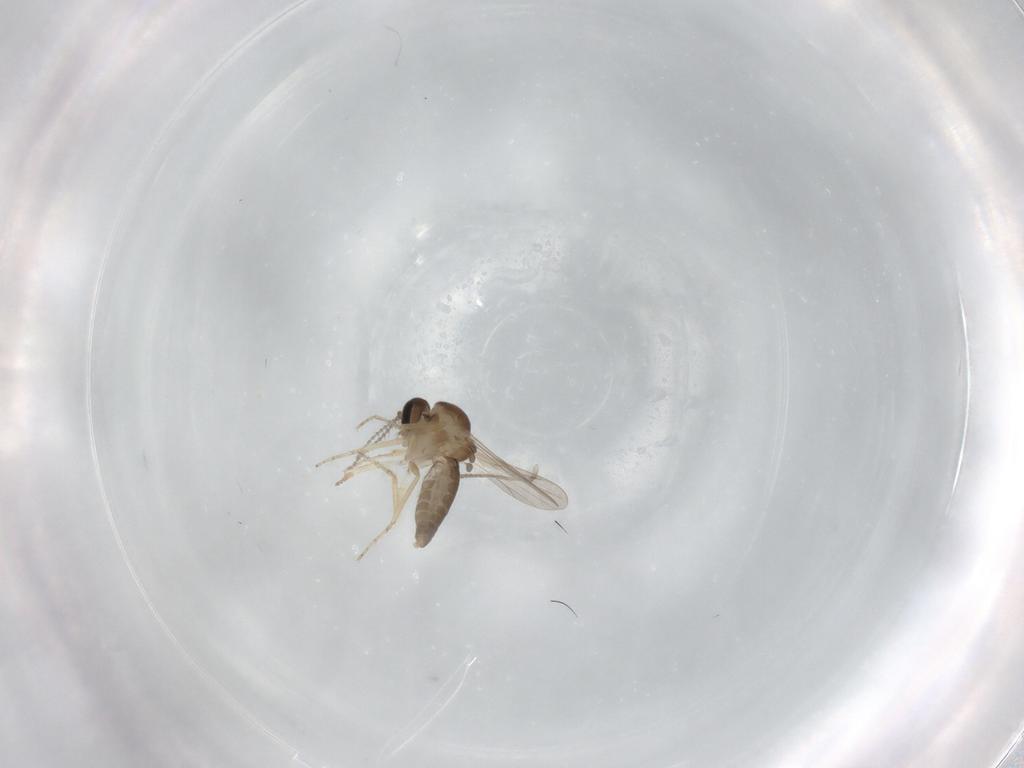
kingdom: Animalia
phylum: Arthropoda
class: Insecta
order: Diptera
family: Ceratopogonidae
